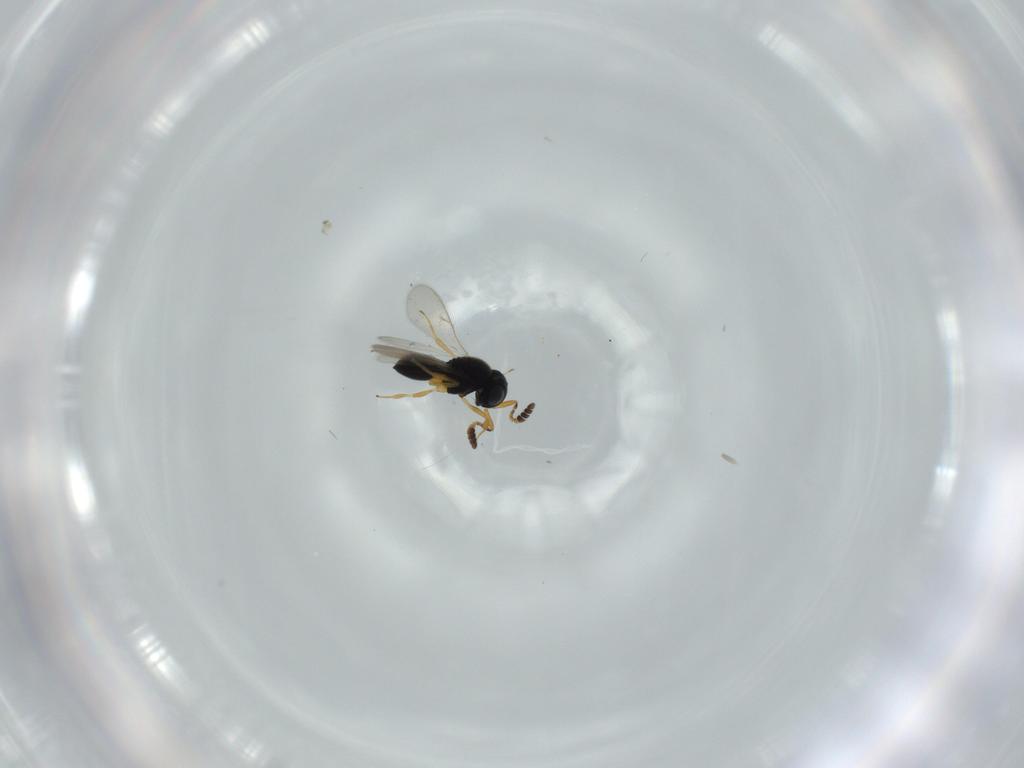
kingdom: Animalia
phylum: Arthropoda
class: Insecta
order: Hymenoptera
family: Scelionidae
